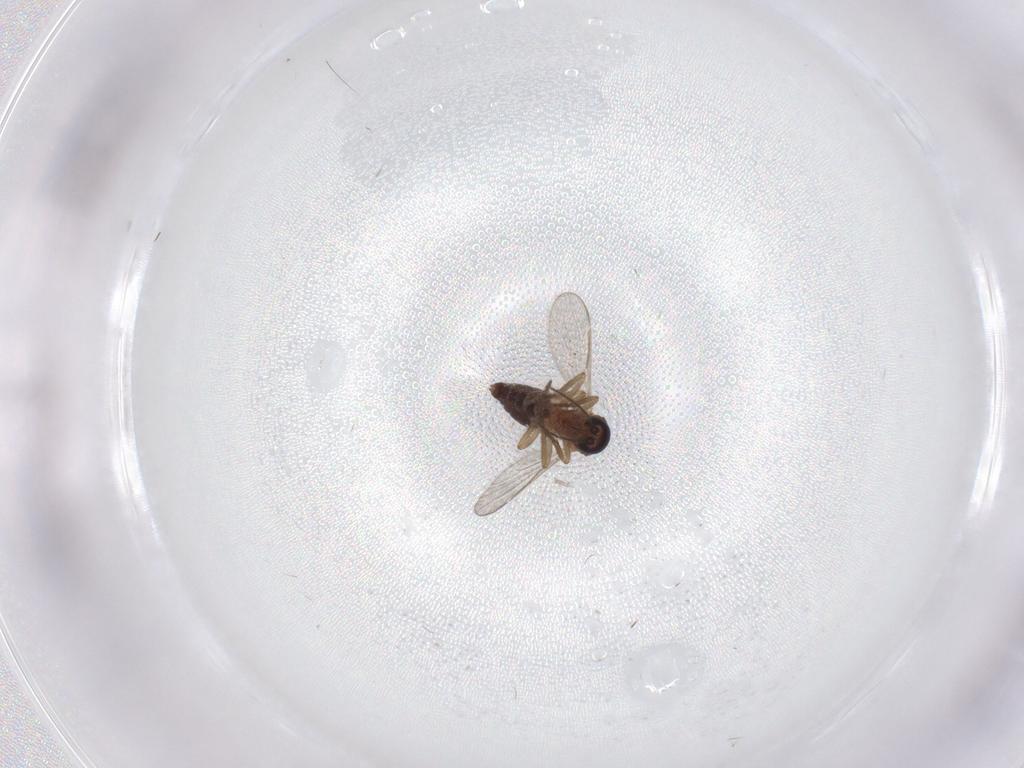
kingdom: Animalia
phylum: Arthropoda
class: Insecta
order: Diptera
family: Ceratopogonidae
